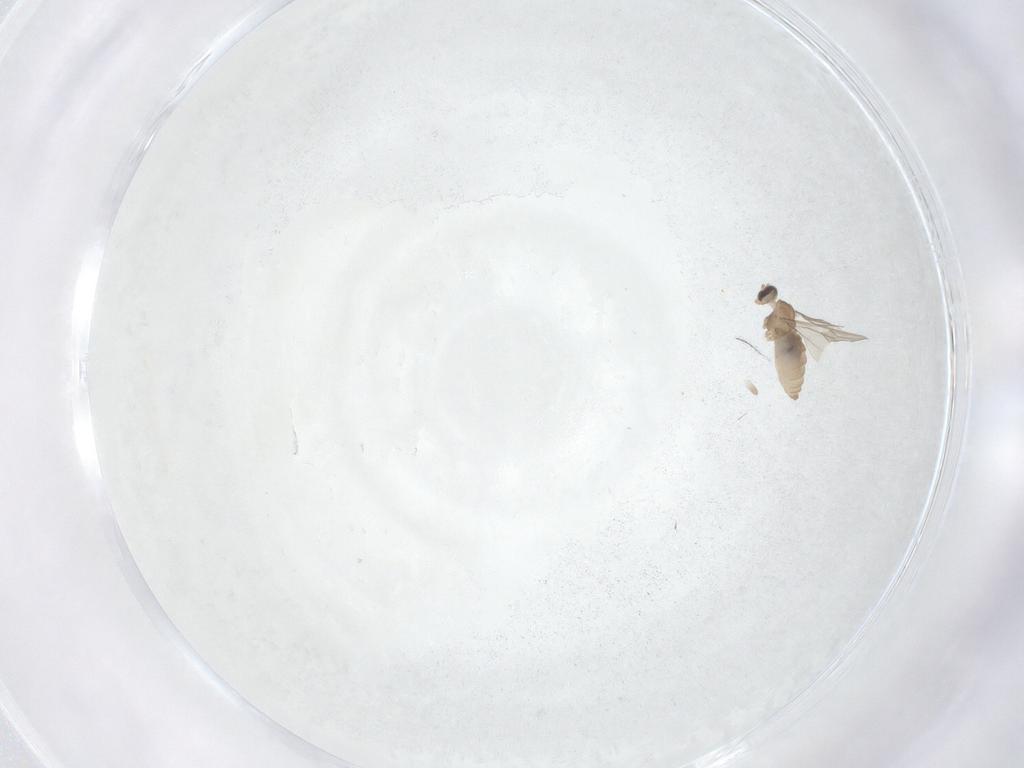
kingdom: Animalia
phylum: Arthropoda
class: Insecta
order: Diptera
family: Cecidomyiidae
